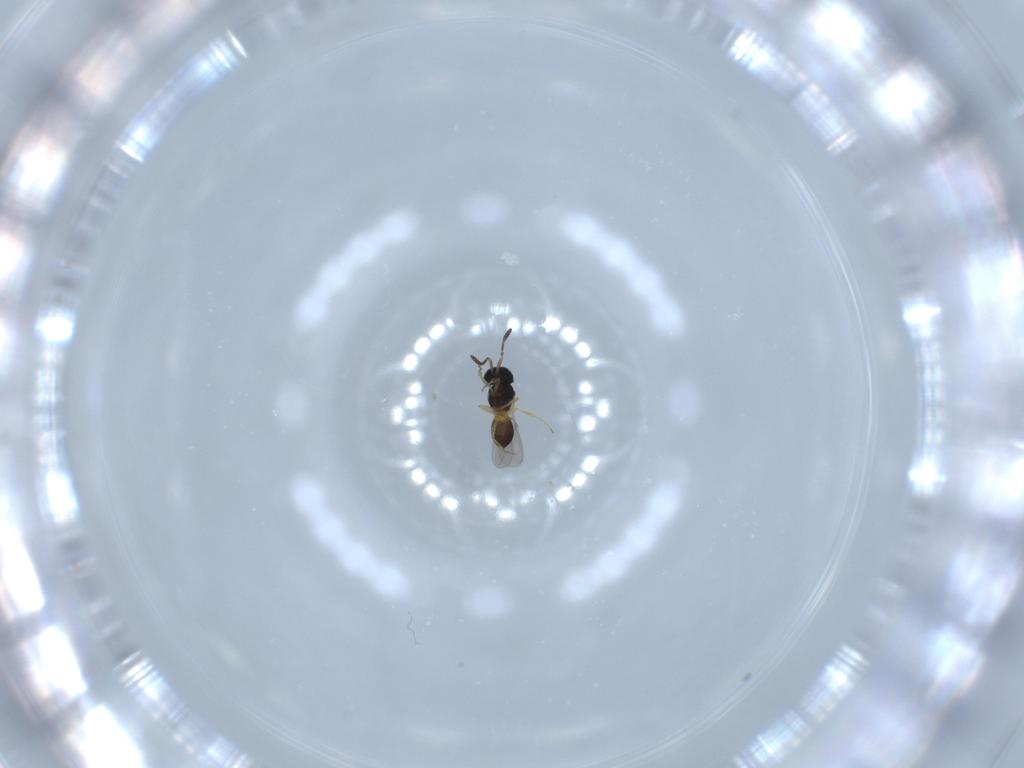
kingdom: Animalia
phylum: Arthropoda
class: Insecta
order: Hymenoptera
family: Scelionidae
